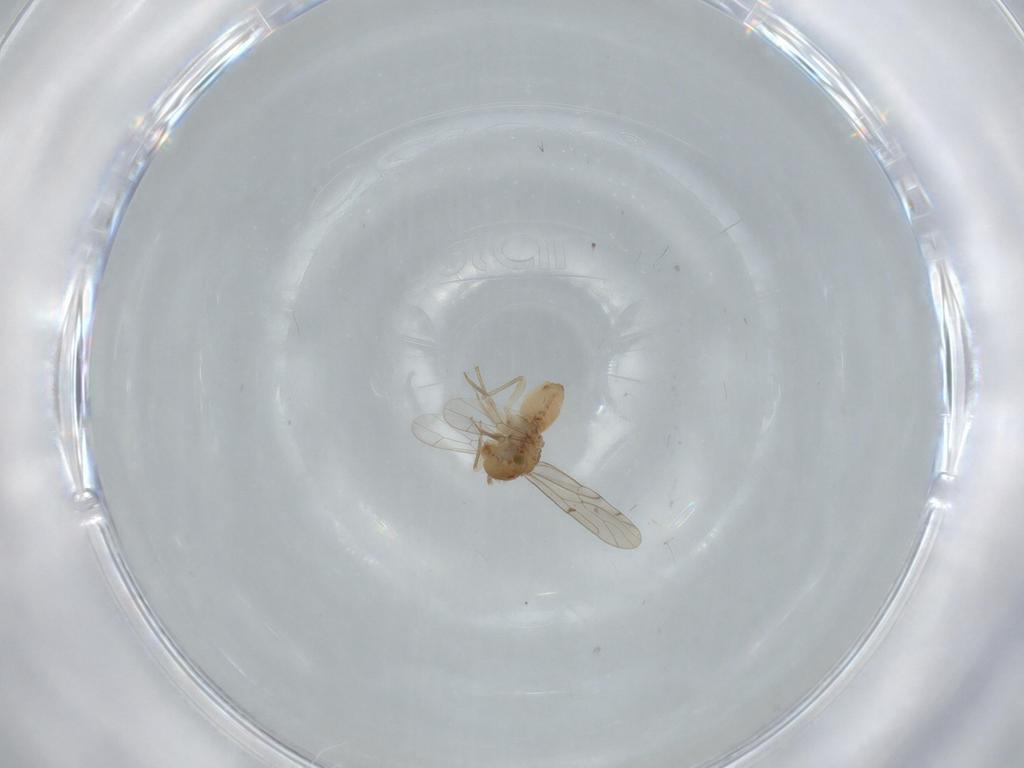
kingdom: Animalia
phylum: Arthropoda
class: Insecta
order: Psocodea
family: Ectopsocidae
